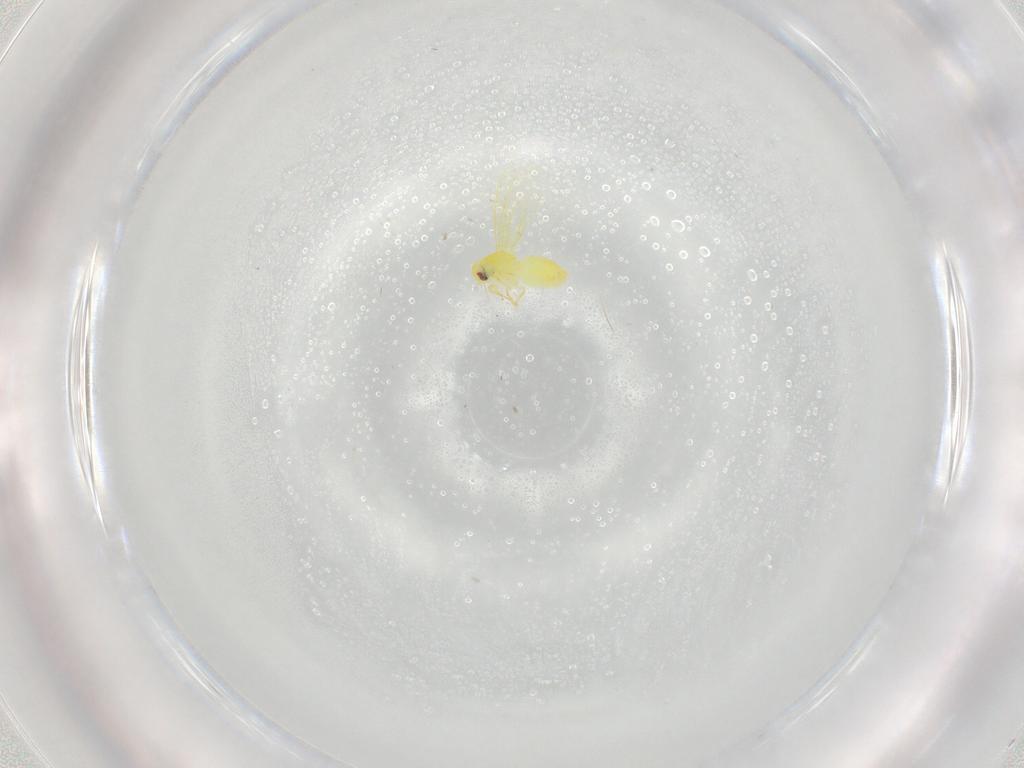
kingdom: Animalia
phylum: Arthropoda
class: Insecta
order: Hemiptera
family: Aleyrodidae
